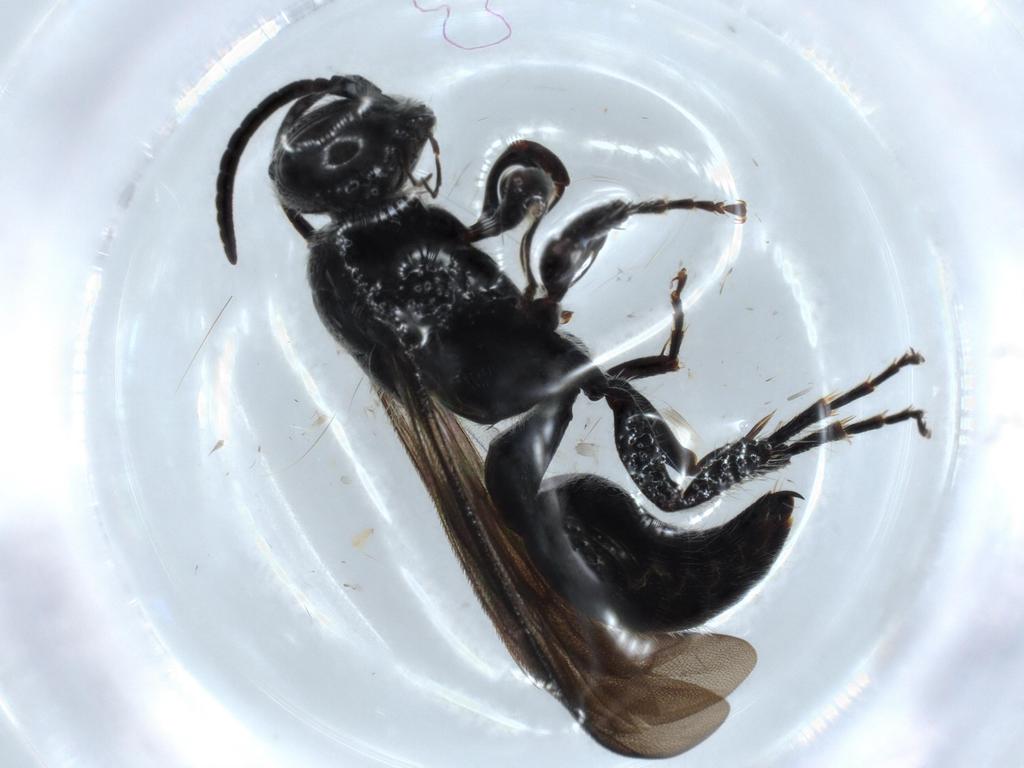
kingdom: Animalia
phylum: Arthropoda
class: Insecta
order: Hymenoptera
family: Tiphiidae
